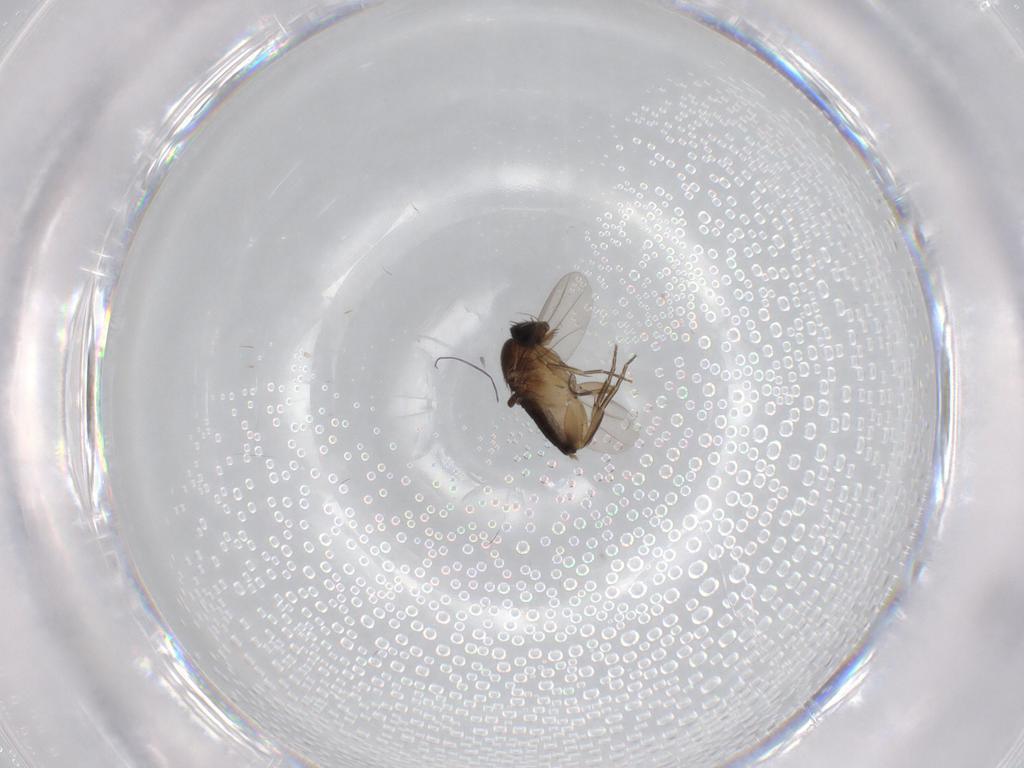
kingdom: Animalia
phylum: Arthropoda
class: Insecta
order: Diptera
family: Phoridae
